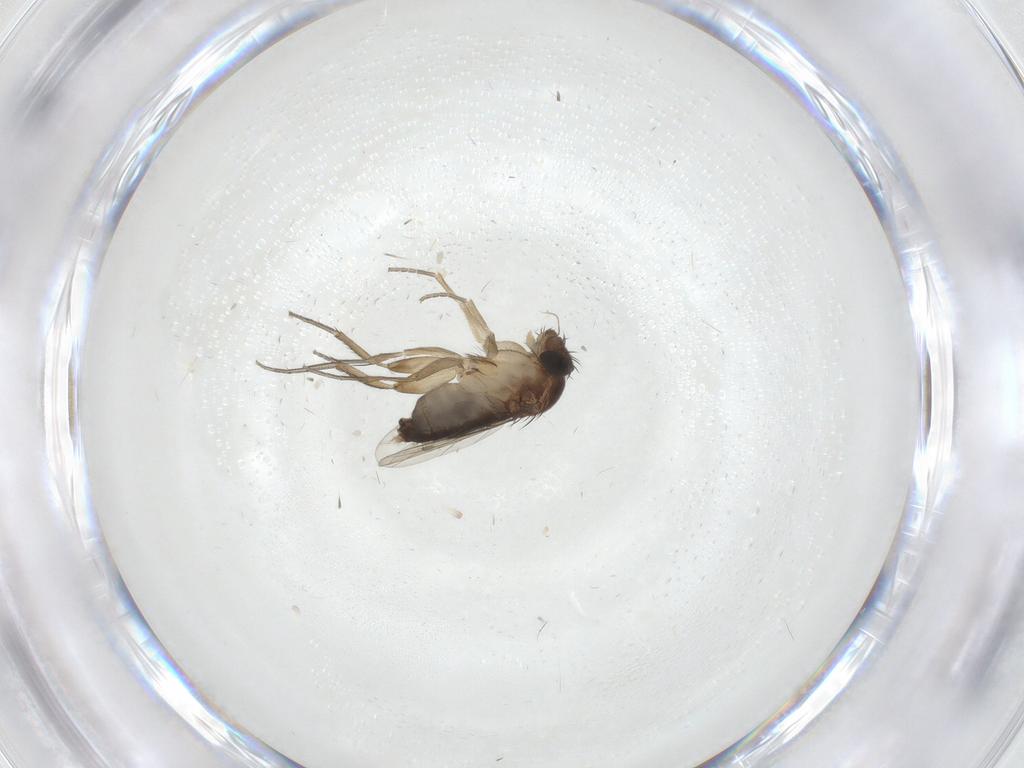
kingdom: Animalia
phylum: Arthropoda
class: Insecta
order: Diptera
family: Phoridae
